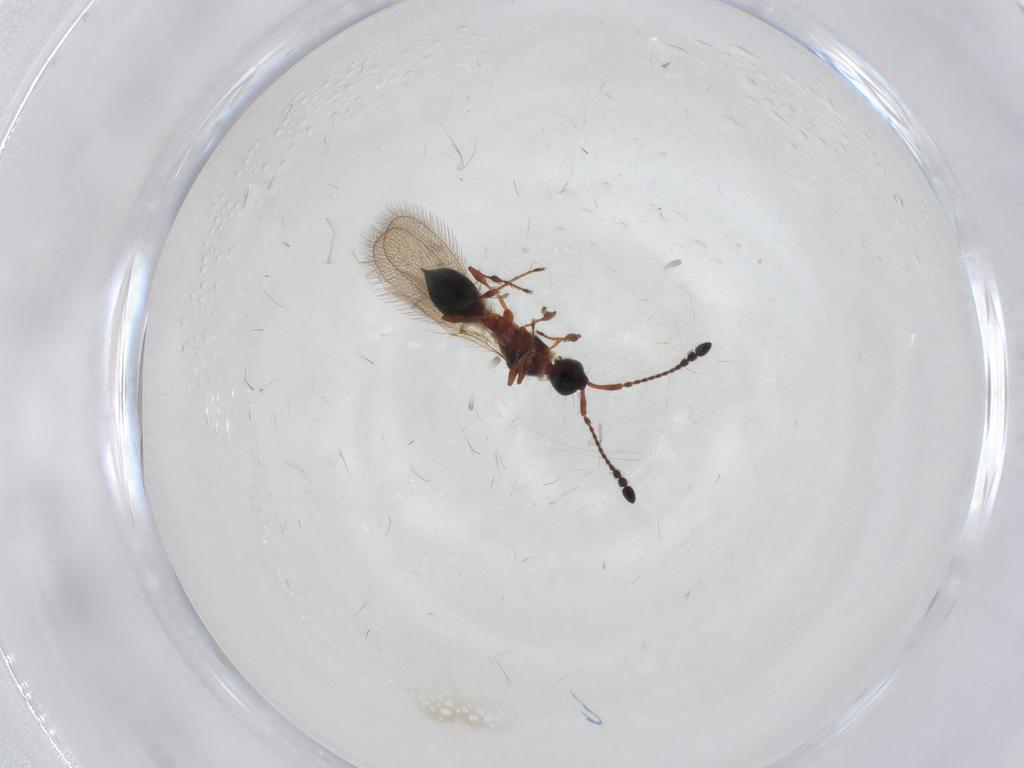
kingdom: Animalia
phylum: Arthropoda
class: Insecta
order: Hymenoptera
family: Diapriidae
